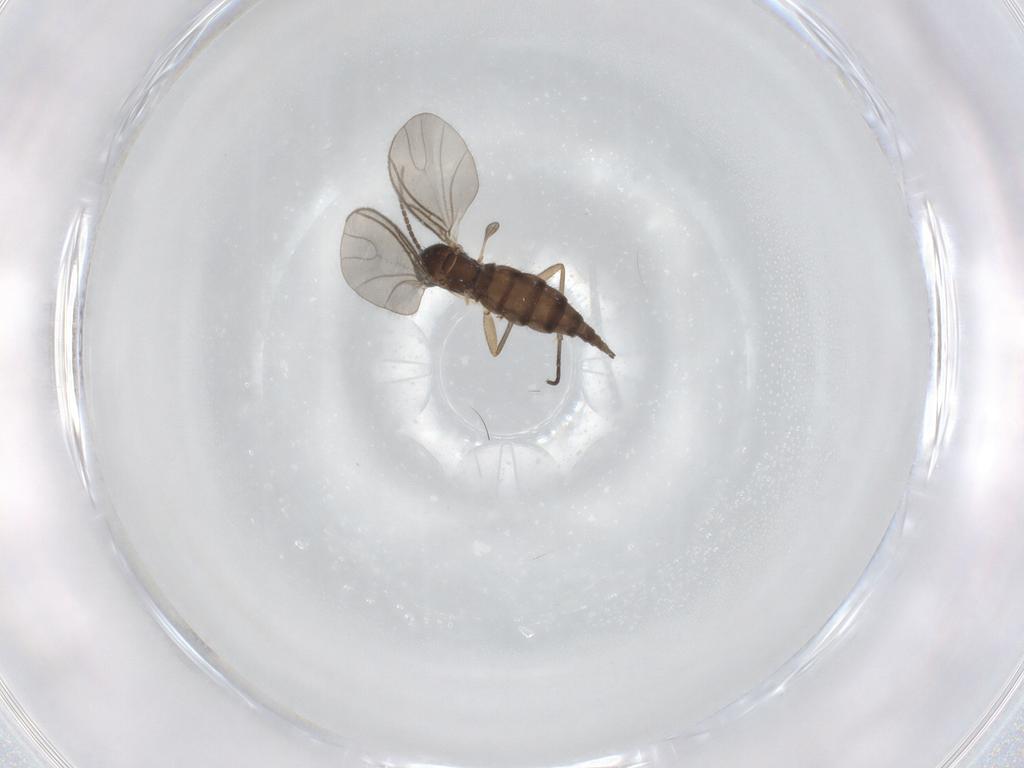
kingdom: Animalia
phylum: Arthropoda
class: Insecta
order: Diptera
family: Sciaridae
